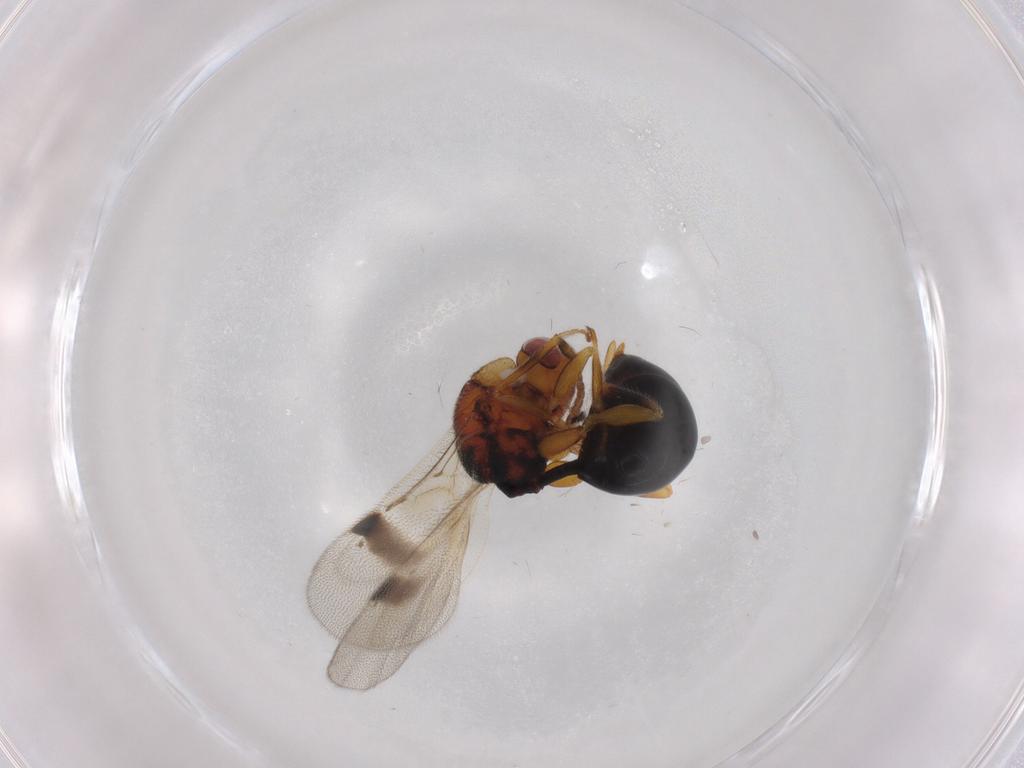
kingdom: Animalia
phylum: Arthropoda
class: Insecta
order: Hymenoptera
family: Eurytomidae
